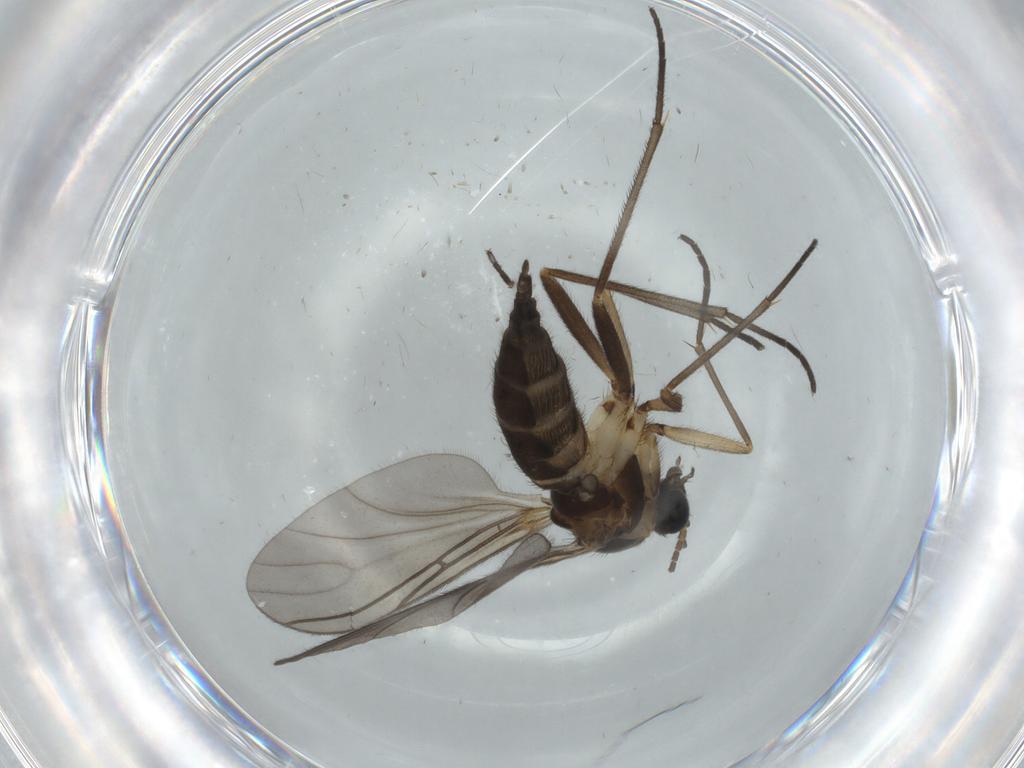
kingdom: Animalia
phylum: Arthropoda
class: Insecta
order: Diptera
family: Sciaridae
